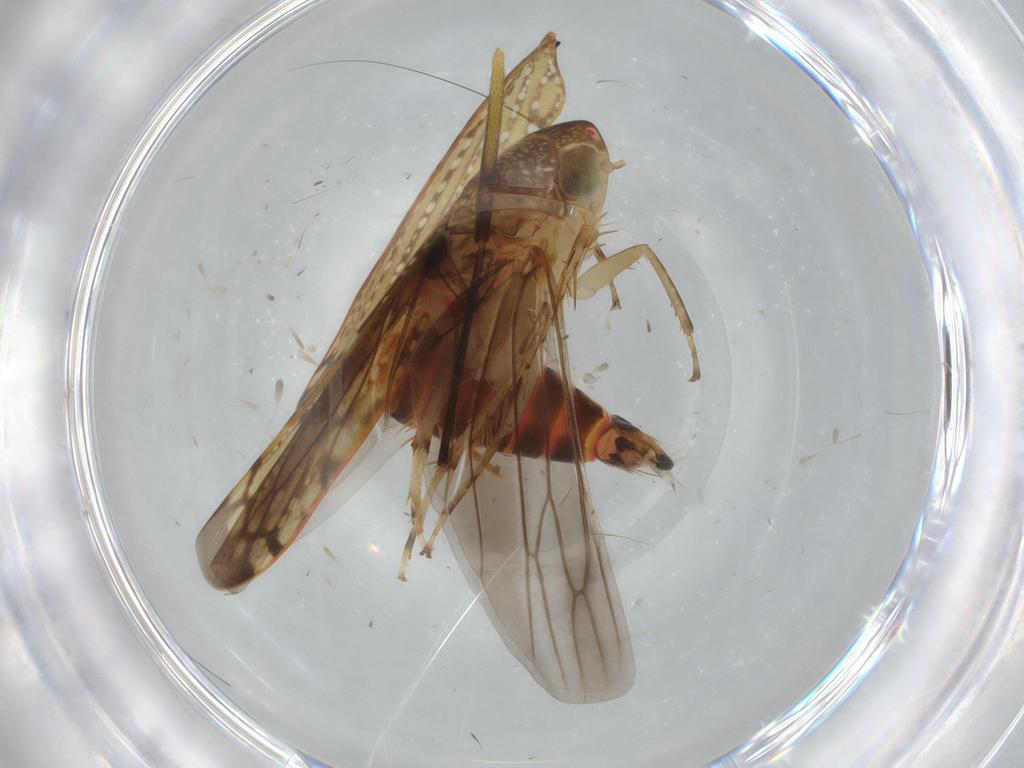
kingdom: Animalia
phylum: Arthropoda
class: Insecta
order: Hemiptera
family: Cicadellidae
